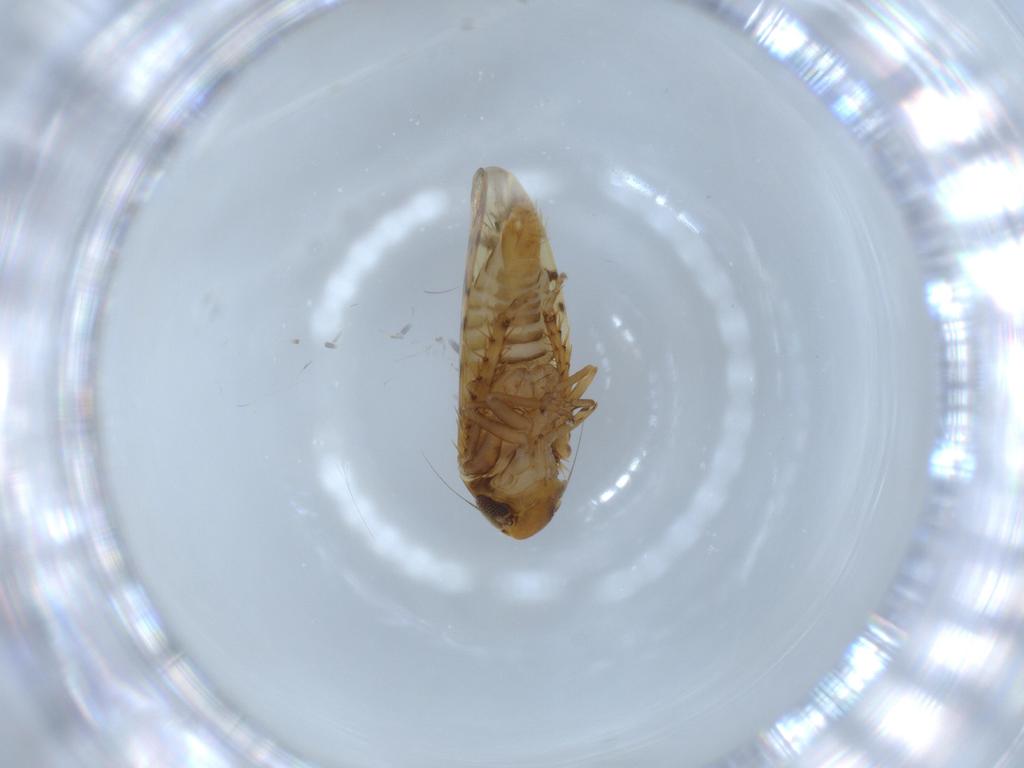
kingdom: Animalia
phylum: Arthropoda
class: Insecta
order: Hemiptera
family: Cicadellidae
